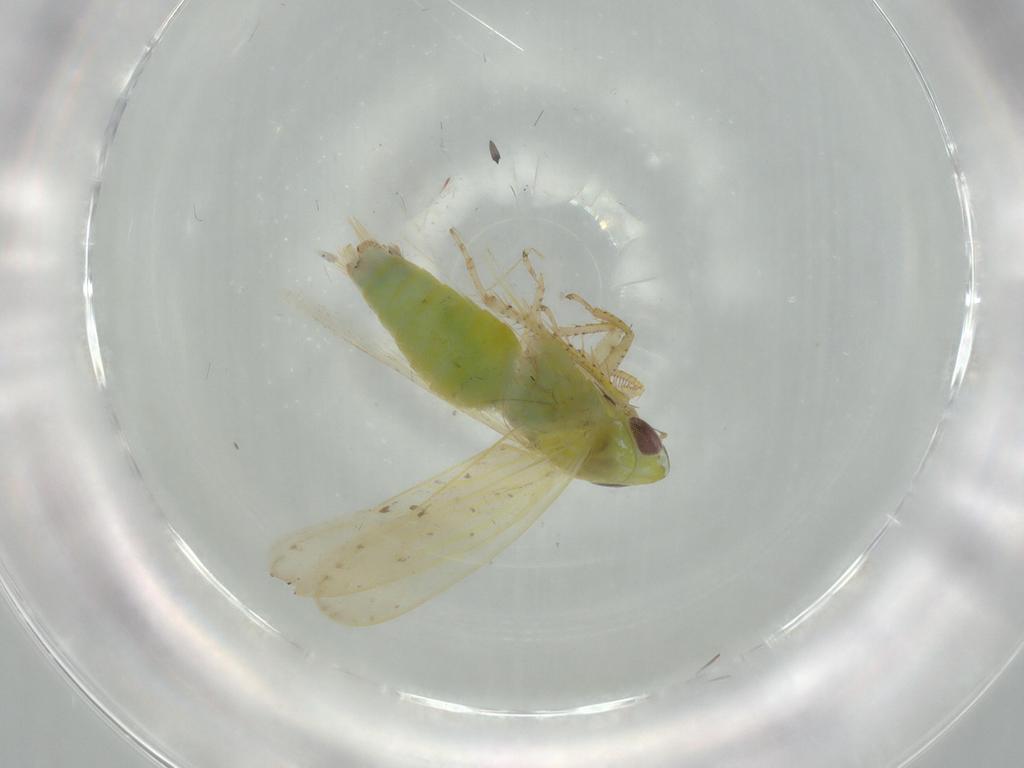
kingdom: Animalia
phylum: Arthropoda
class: Insecta
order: Hemiptera
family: Cicadellidae
